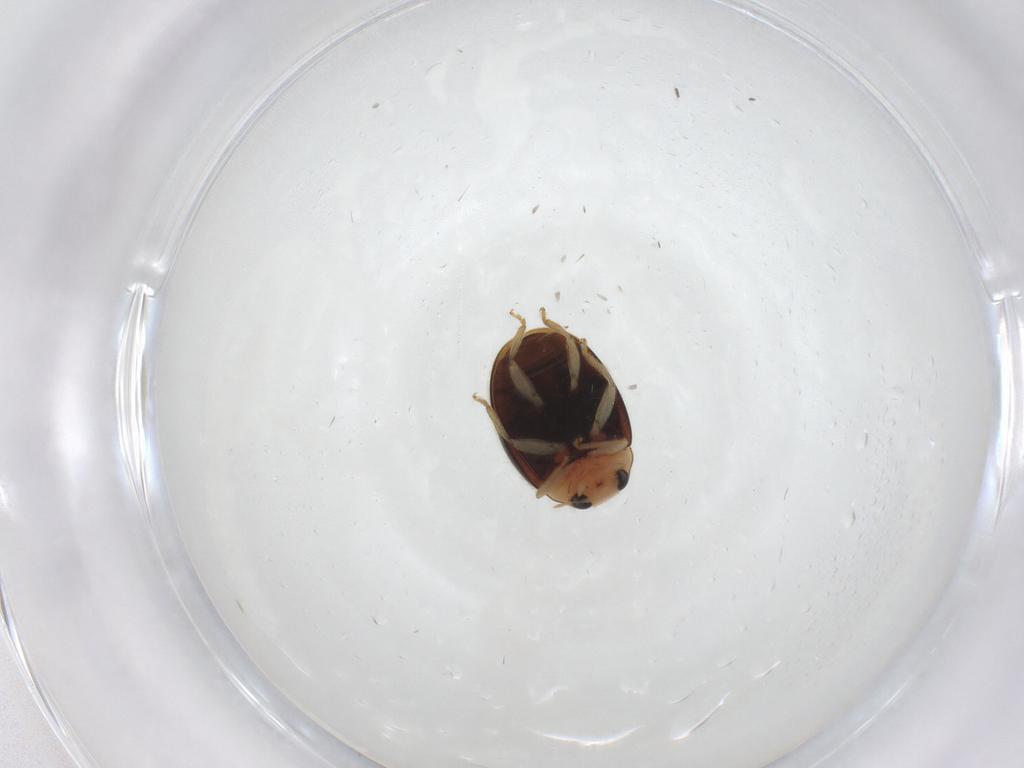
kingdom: Animalia
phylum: Arthropoda
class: Insecta
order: Coleoptera
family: Coccinellidae
